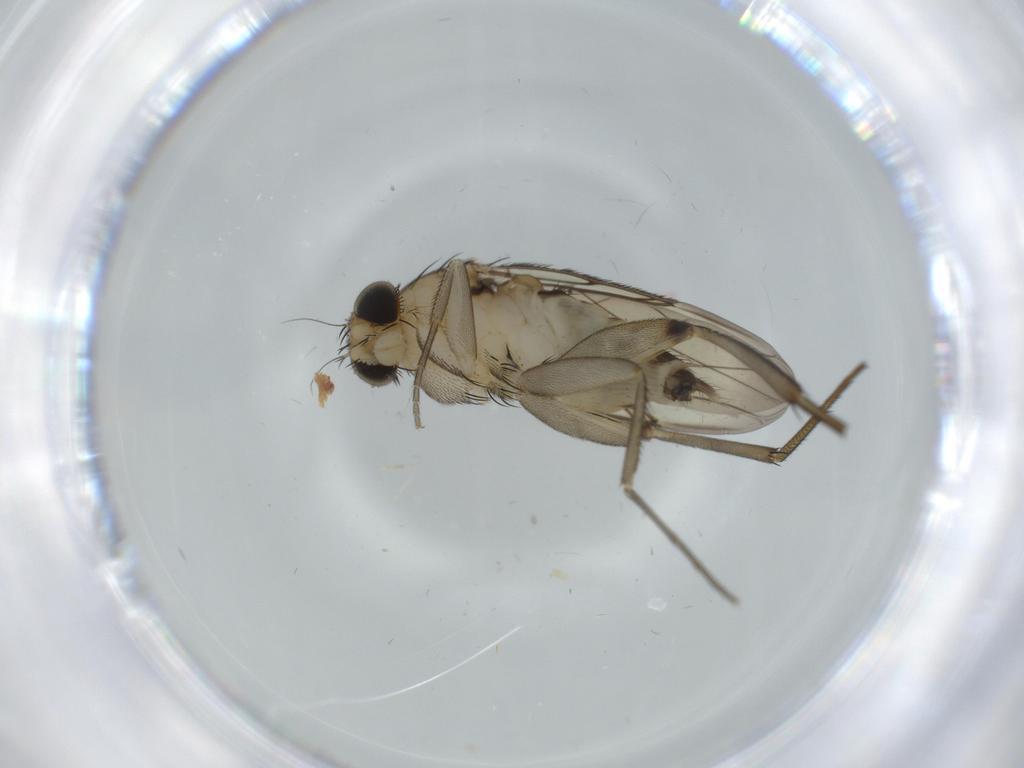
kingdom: Animalia
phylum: Arthropoda
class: Insecta
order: Diptera
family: Phoridae
